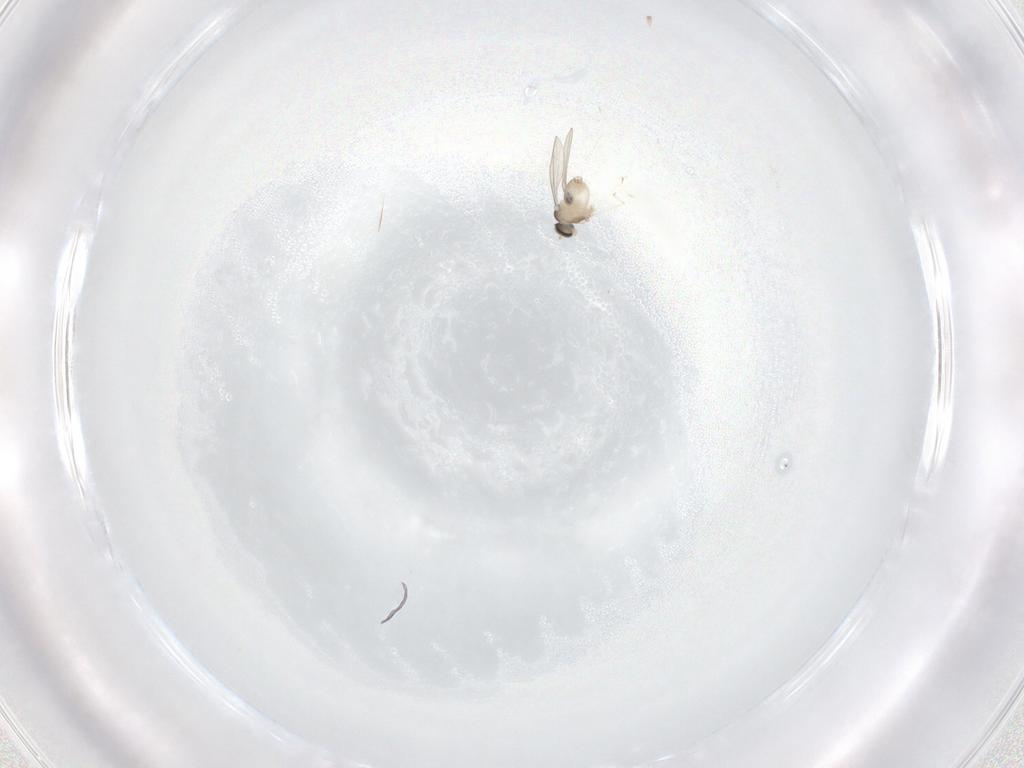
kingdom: Animalia
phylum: Arthropoda
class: Insecta
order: Diptera
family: Cecidomyiidae
